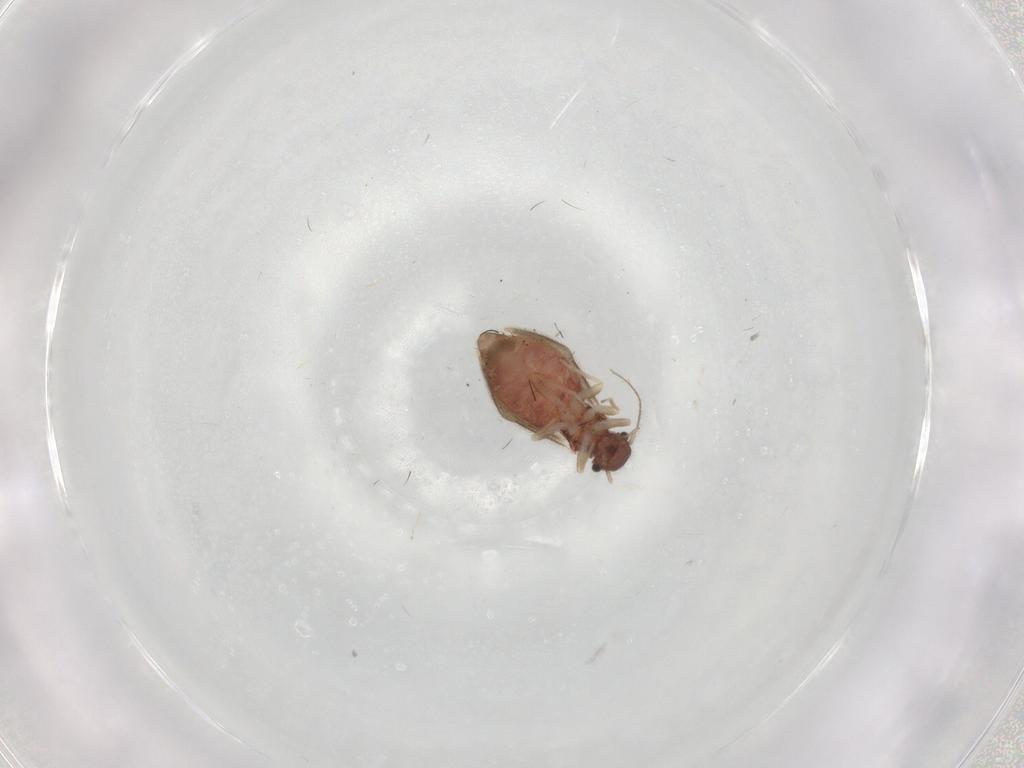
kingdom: Animalia
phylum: Arthropoda
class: Insecta
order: Psocodea
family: Archipsocidae
